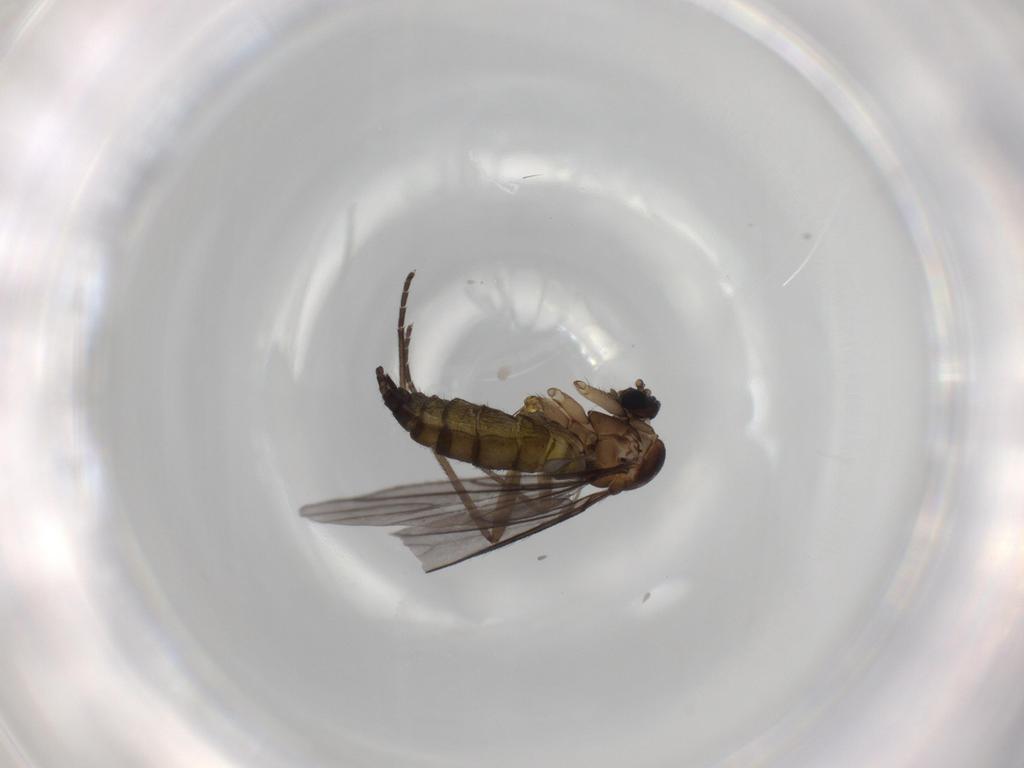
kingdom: Animalia
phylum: Arthropoda
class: Insecta
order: Diptera
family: Sciaridae
